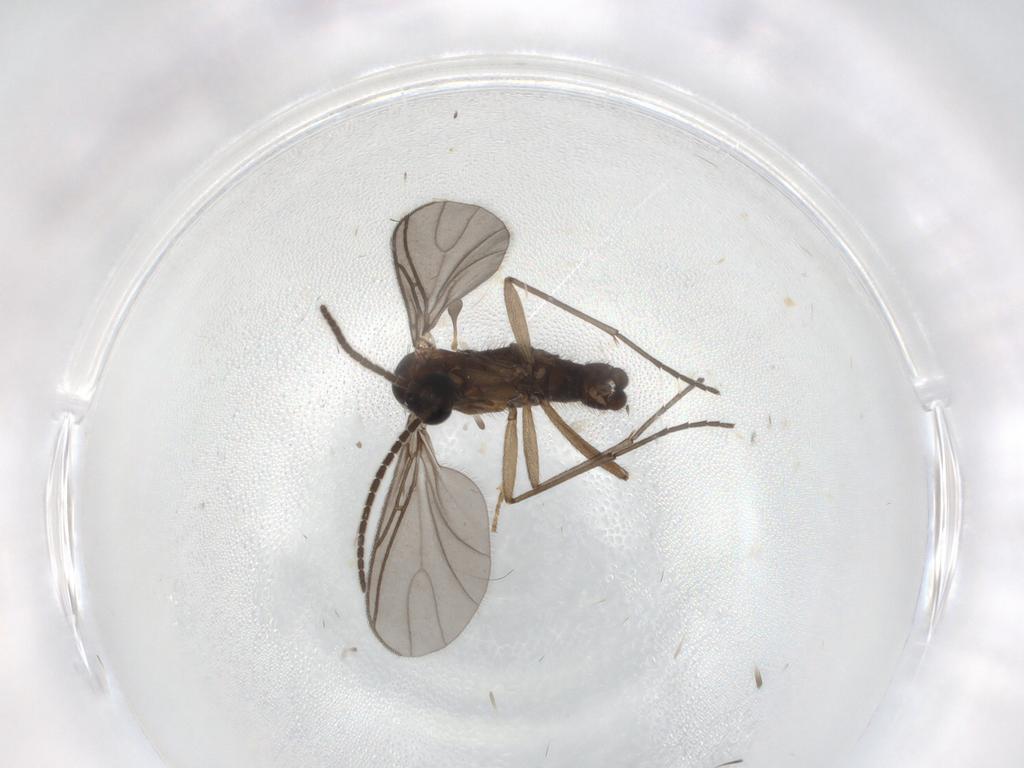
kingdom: Animalia
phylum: Arthropoda
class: Insecta
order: Diptera
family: Sciaridae
